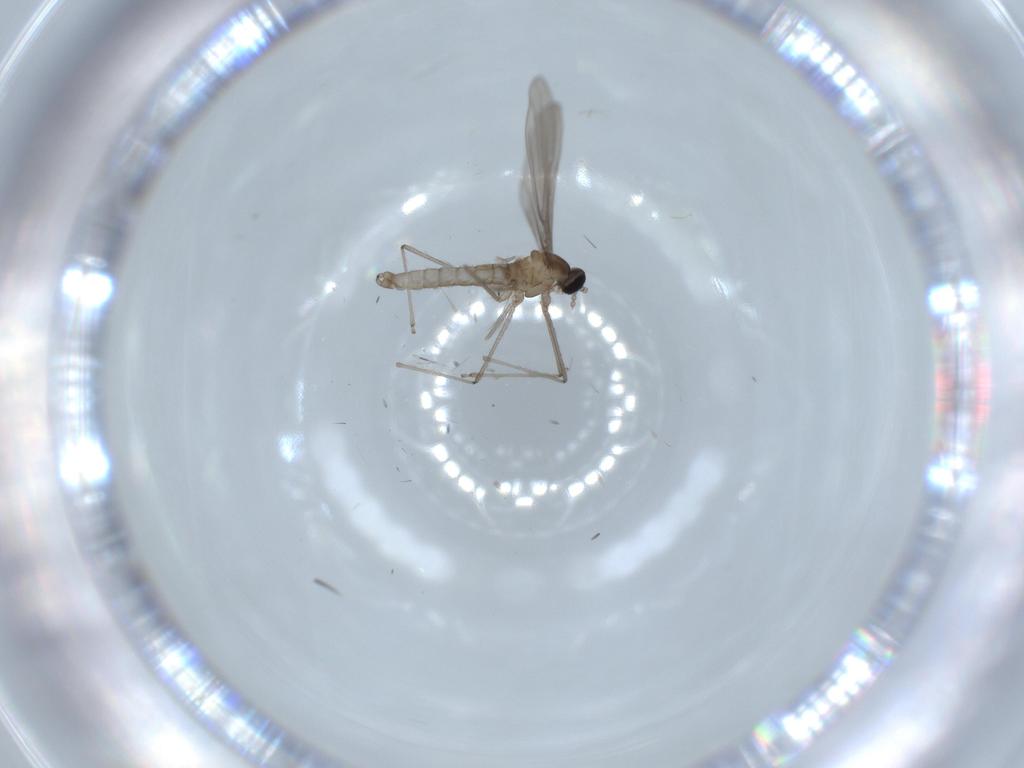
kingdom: Animalia
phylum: Arthropoda
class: Insecta
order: Diptera
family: Cecidomyiidae
